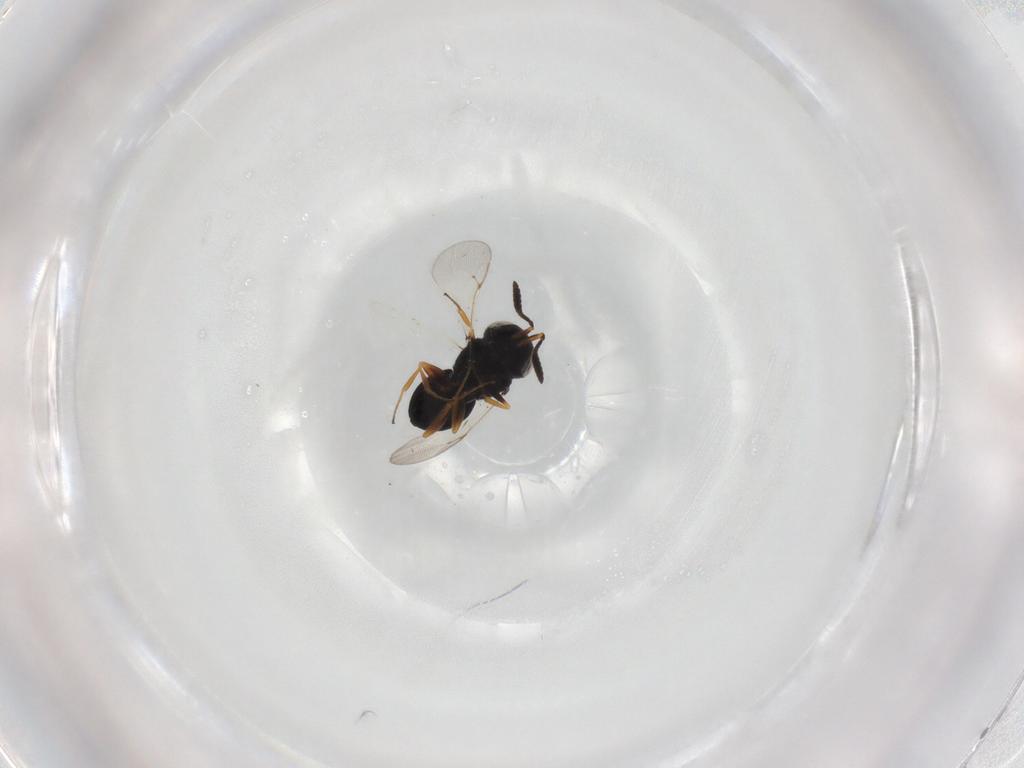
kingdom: Animalia
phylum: Arthropoda
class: Insecta
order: Hymenoptera
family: Scelionidae
